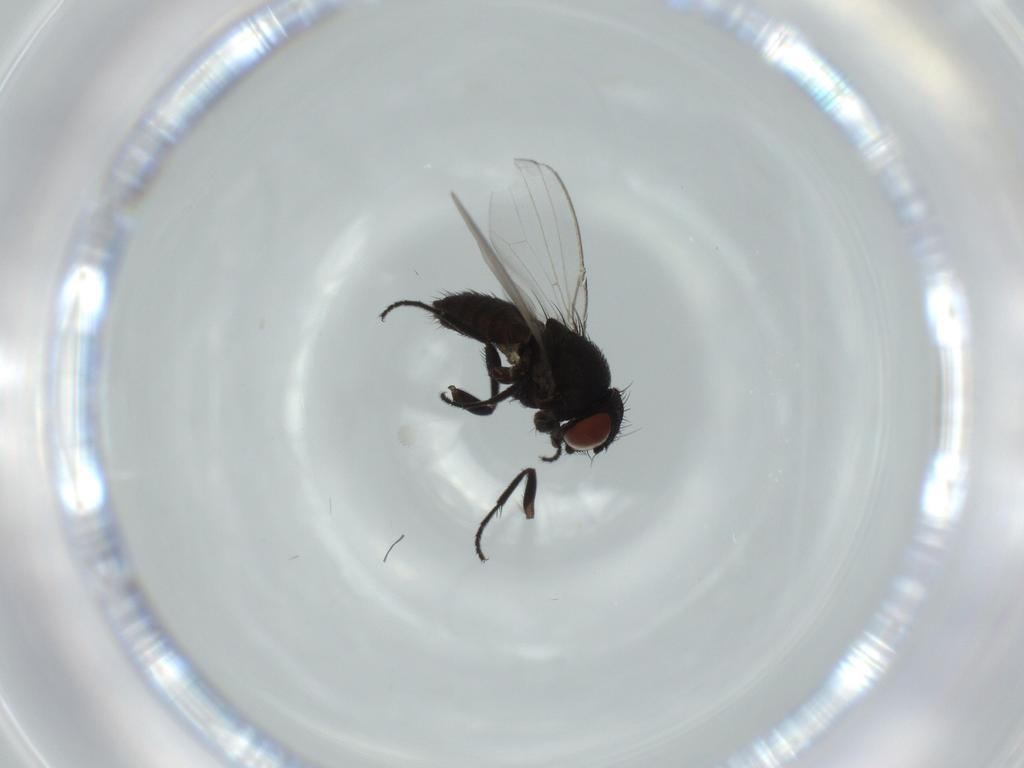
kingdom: Animalia
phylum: Arthropoda
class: Insecta
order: Diptera
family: Milichiidae
